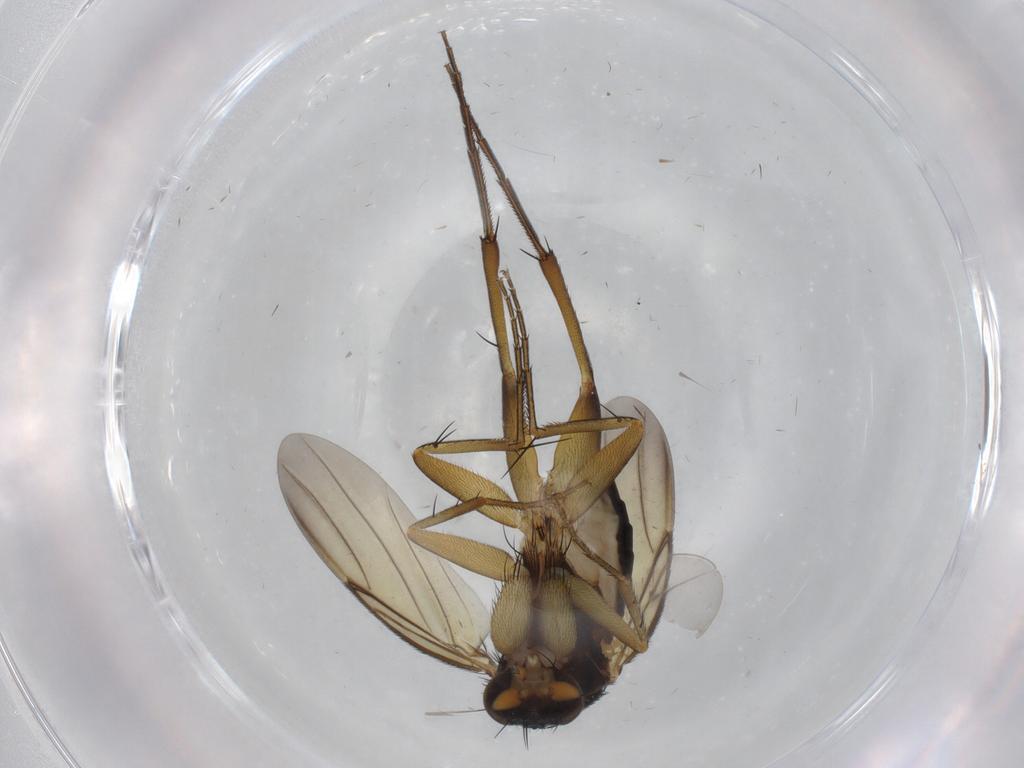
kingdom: Animalia
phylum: Arthropoda
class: Insecta
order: Diptera
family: Phoridae
